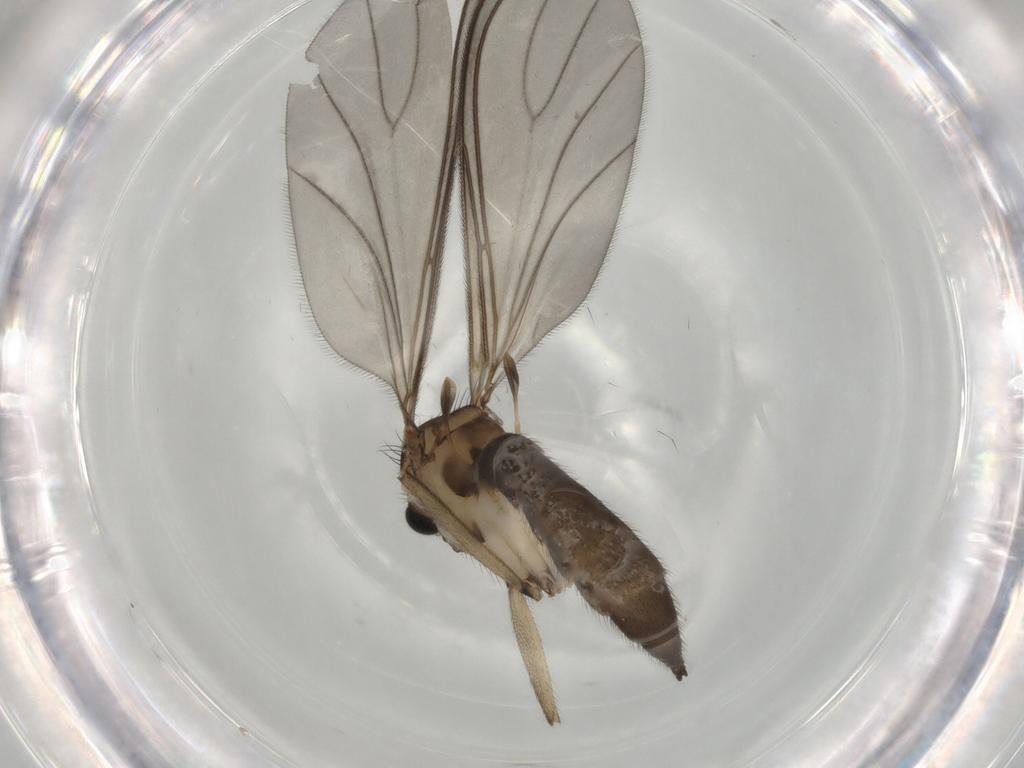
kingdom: Animalia
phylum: Arthropoda
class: Insecta
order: Diptera
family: Sciaridae
